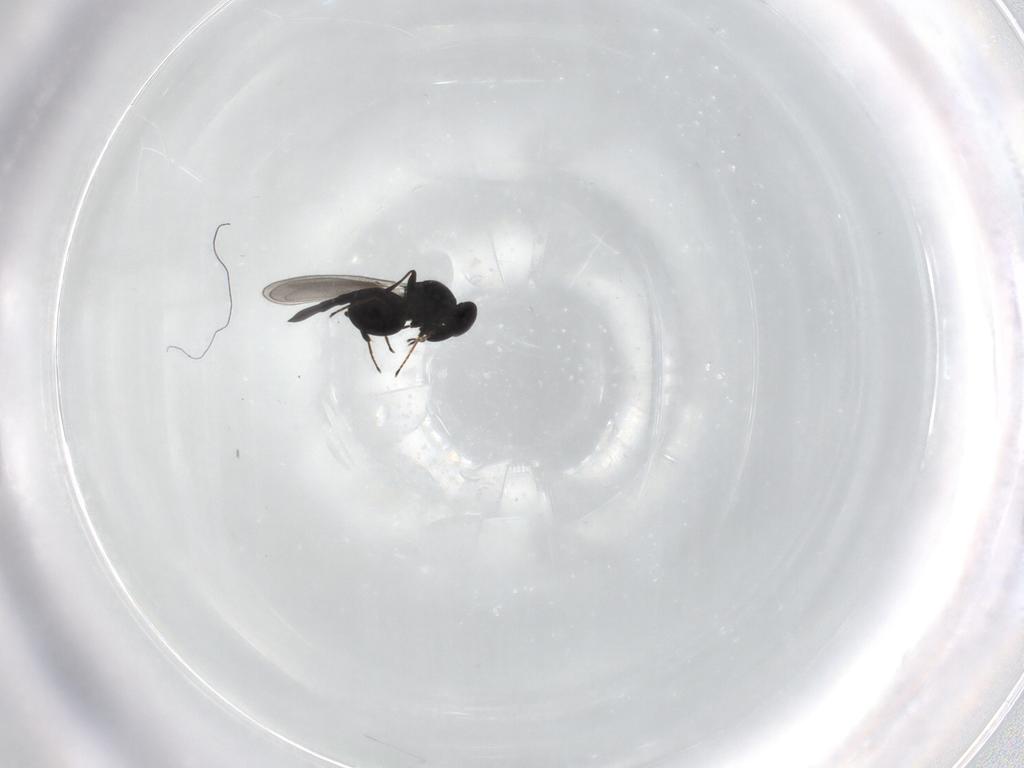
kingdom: Animalia
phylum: Arthropoda
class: Insecta
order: Hymenoptera
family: Platygastridae
